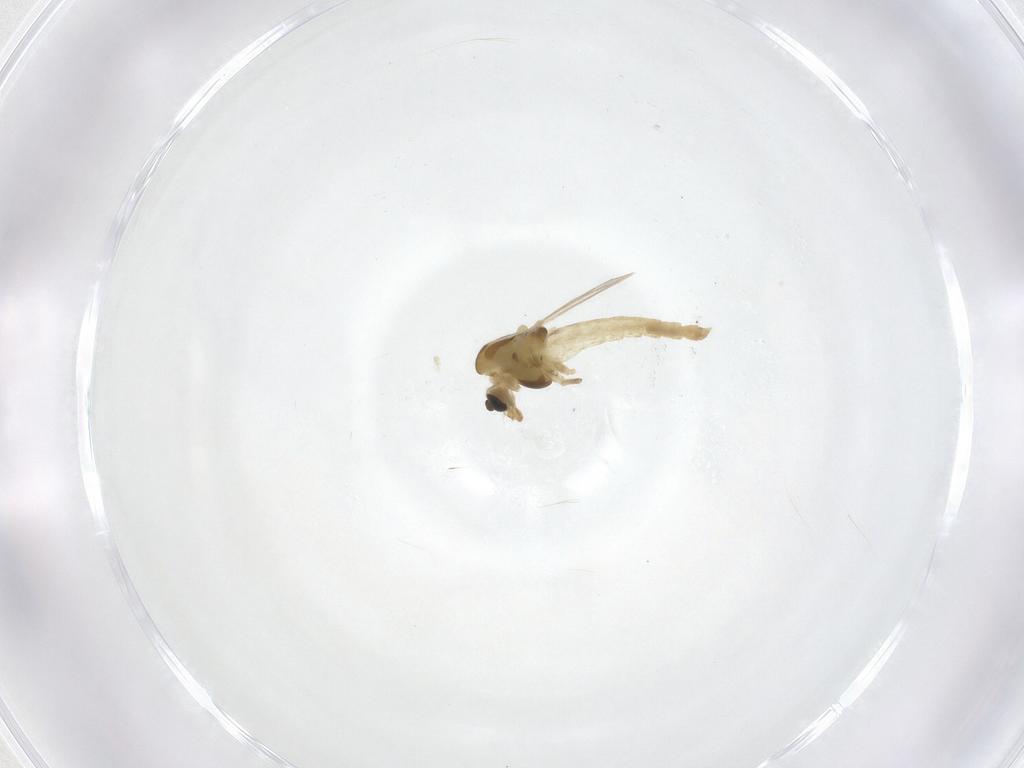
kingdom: Animalia
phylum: Arthropoda
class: Insecta
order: Diptera
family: Chironomidae
